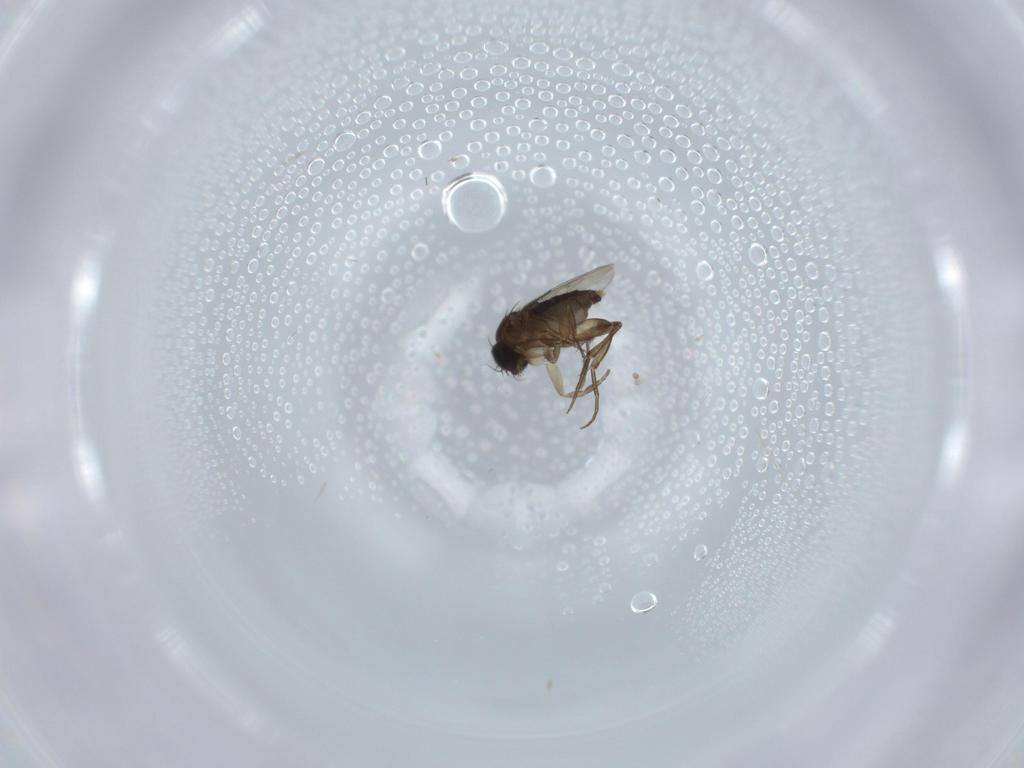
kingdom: Animalia
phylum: Arthropoda
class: Insecta
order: Diptera
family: Phoridae
